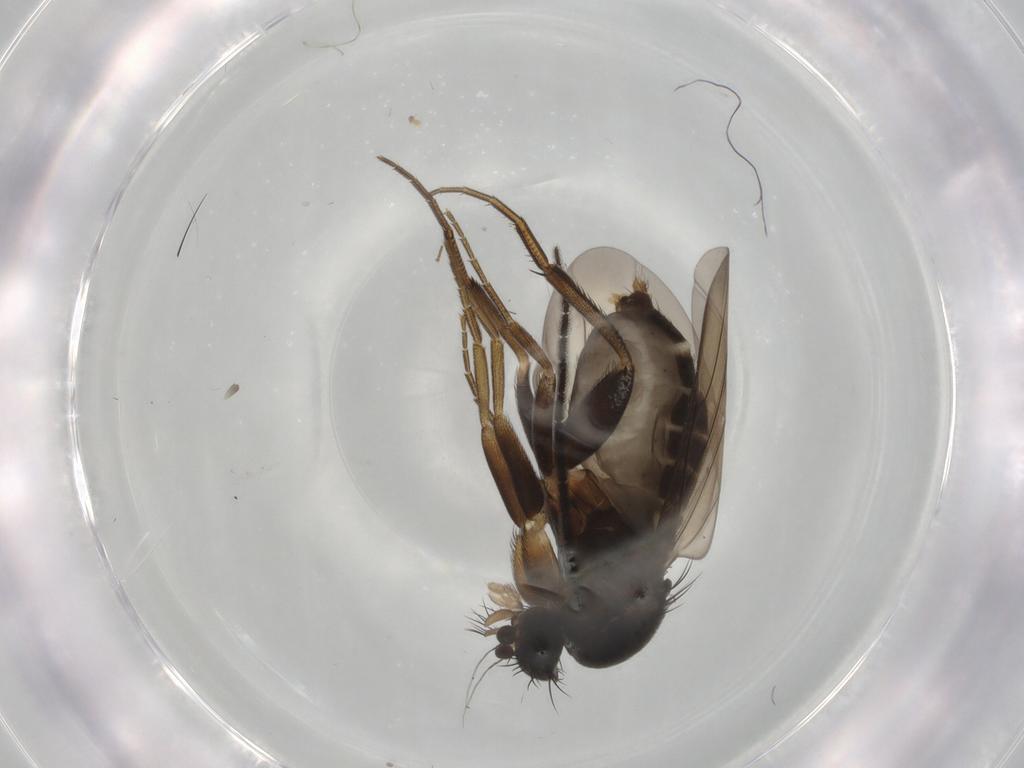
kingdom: Animalia
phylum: Arthropoda
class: Insecta
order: Diptera
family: Phoridae
